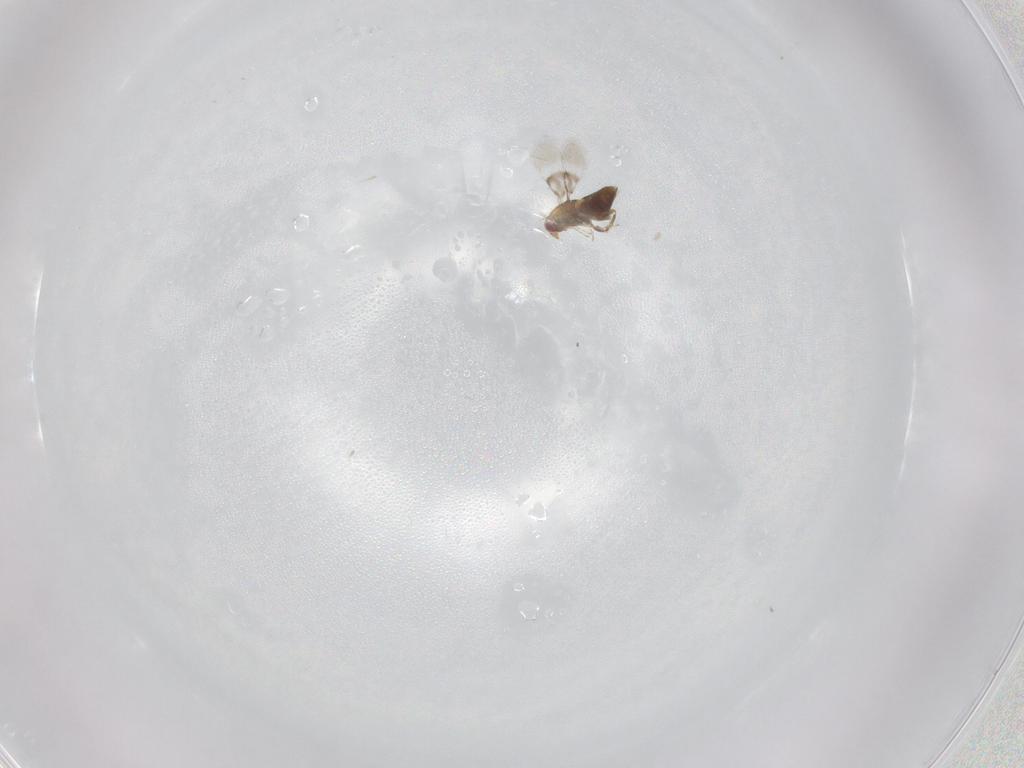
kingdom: Animalia
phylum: Arthropoda
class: Insecta
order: Hymenoptera
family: Trichogrammatidae
